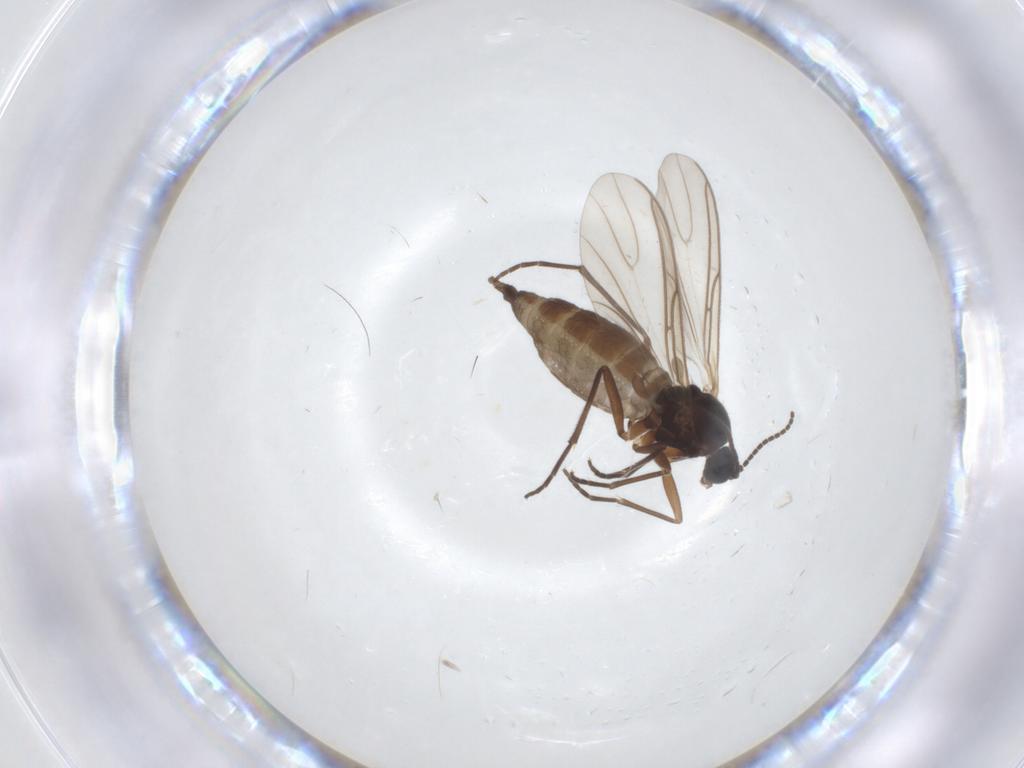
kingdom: Animalia
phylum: Arthropoda
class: Insecta
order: Diptera
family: Sciaridae
